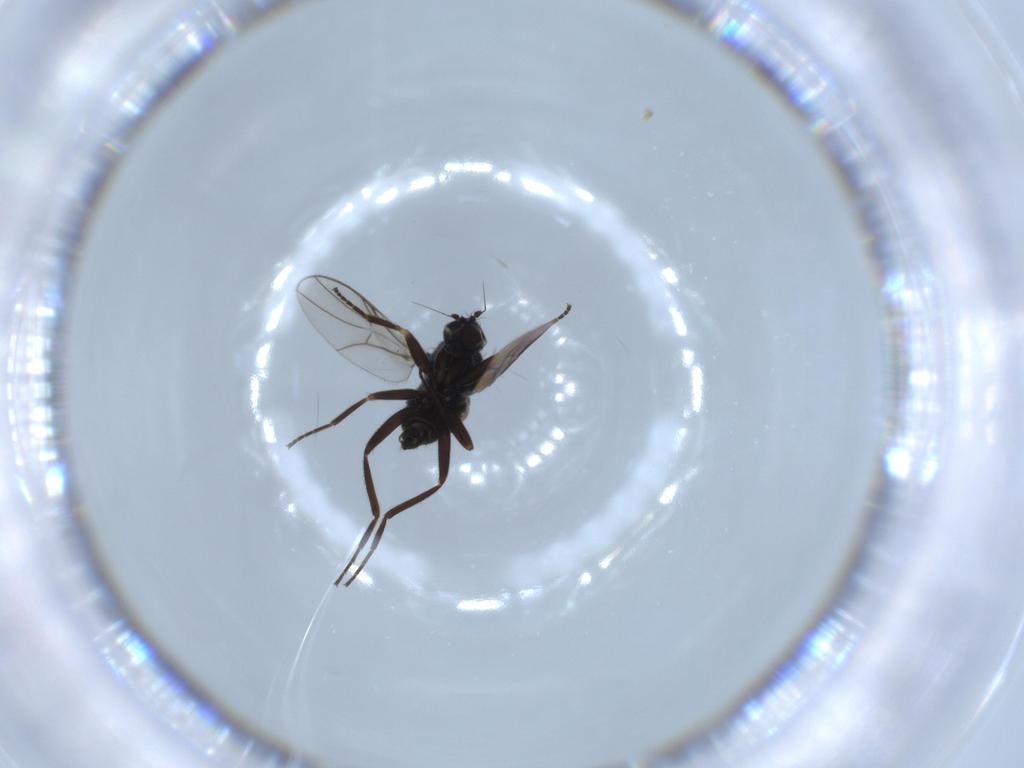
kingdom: Animalia
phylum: Arthropoda
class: Insecta
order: Diptera
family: Hybotidae
